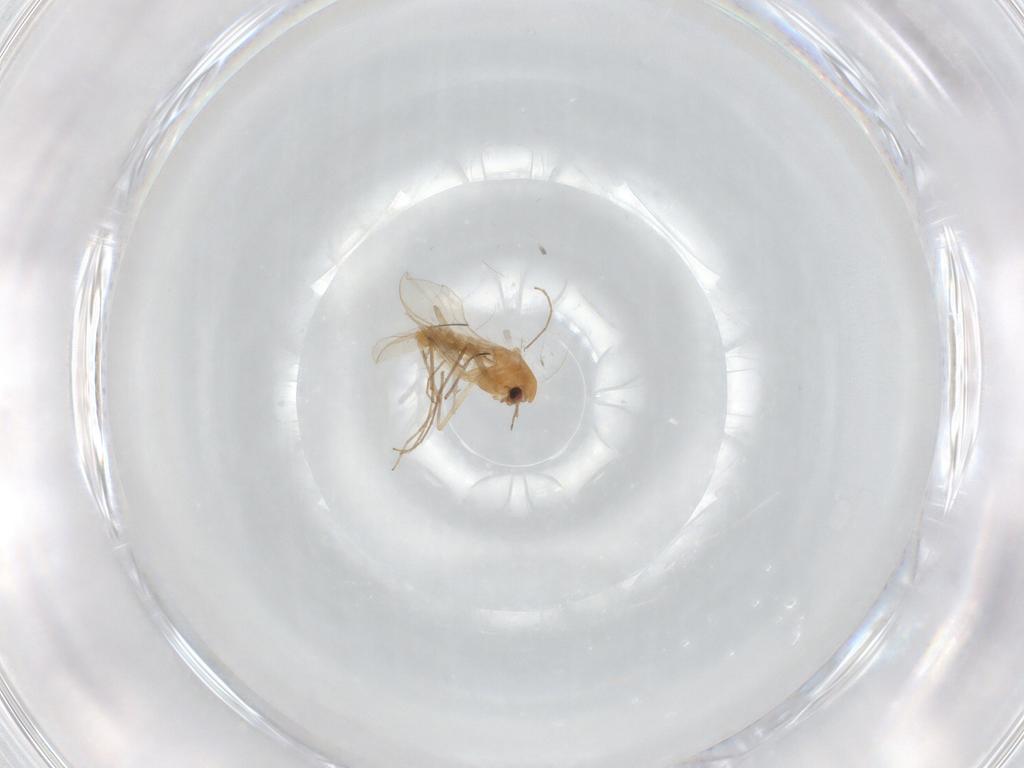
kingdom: Animalia
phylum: Arthropoda
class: Insecta
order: Diptera
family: Chironomidae
